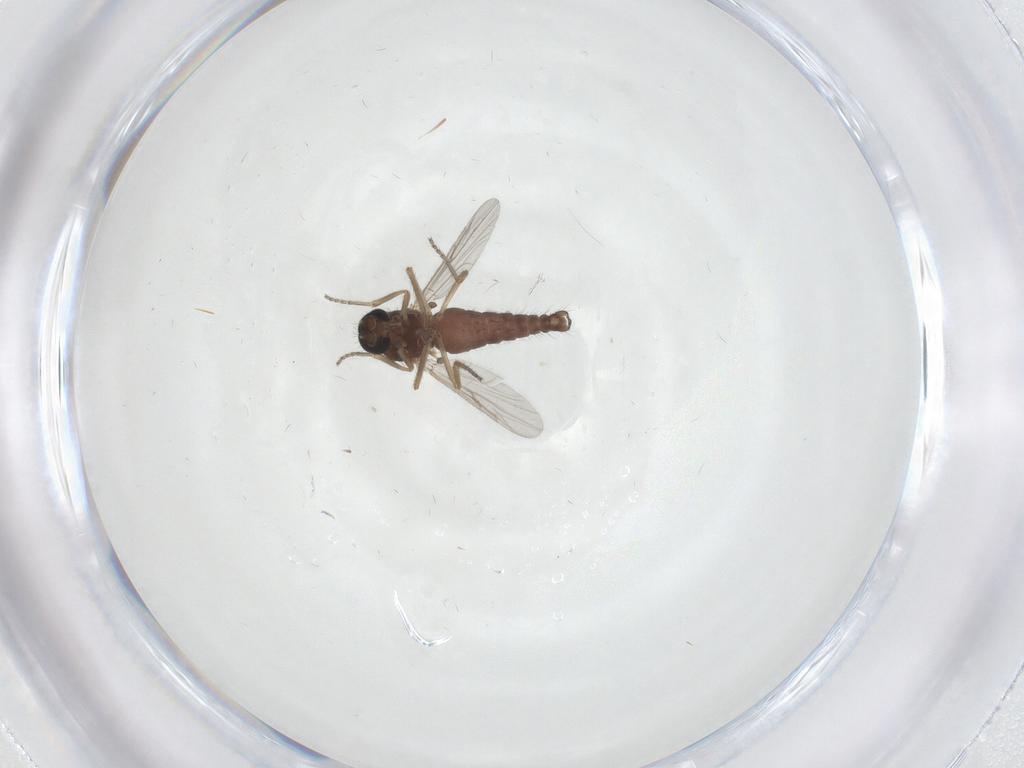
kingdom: Animalia
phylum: Arthropoda
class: Insecta
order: Diptera
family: Ceratopogonidae
